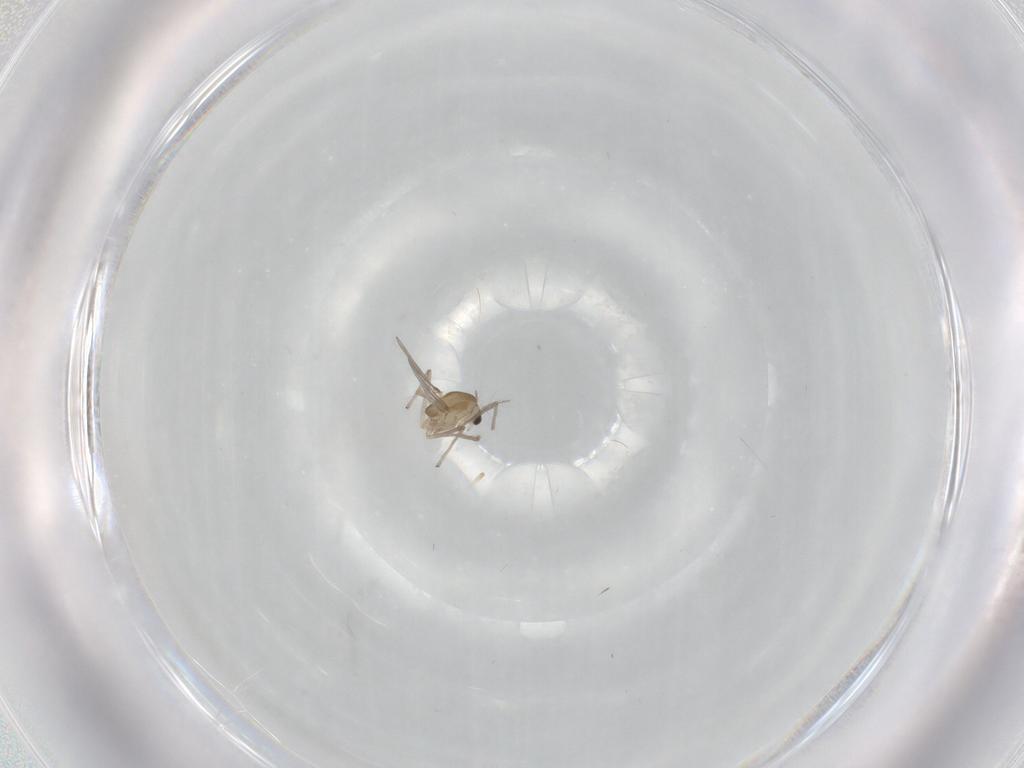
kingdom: Animalia
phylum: Arthropoda
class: Insecta
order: Diptera
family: Chironomidae
